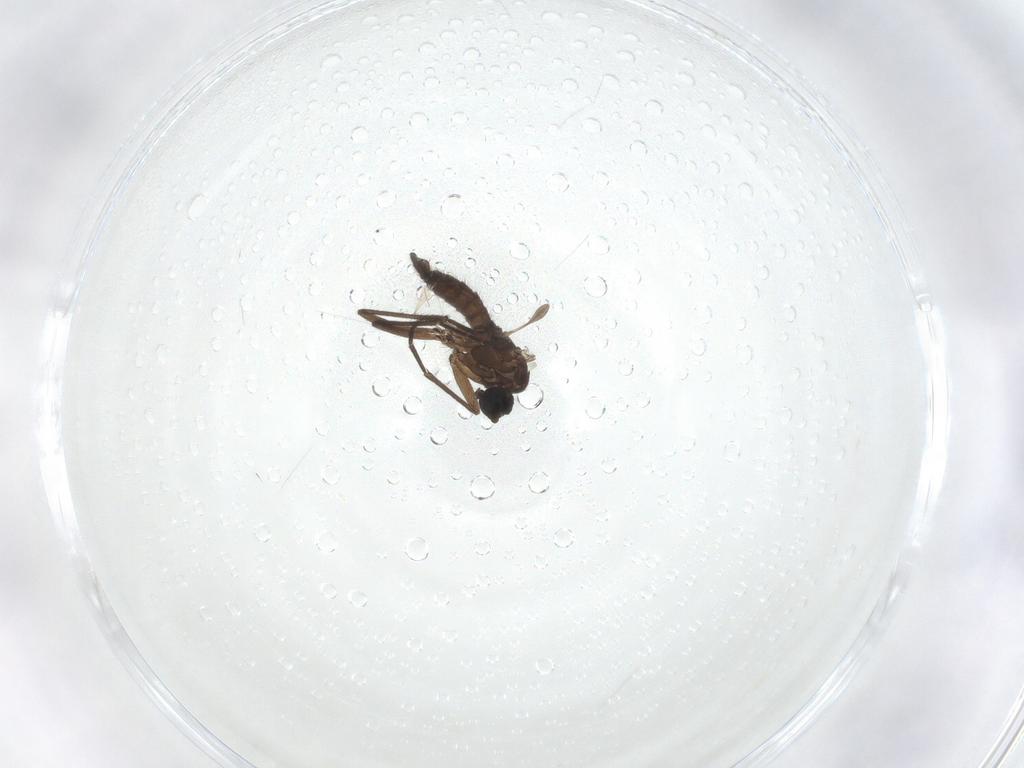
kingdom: Animalia
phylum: Arthropoda
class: Insecta
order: Diptera
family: Sciaridae
